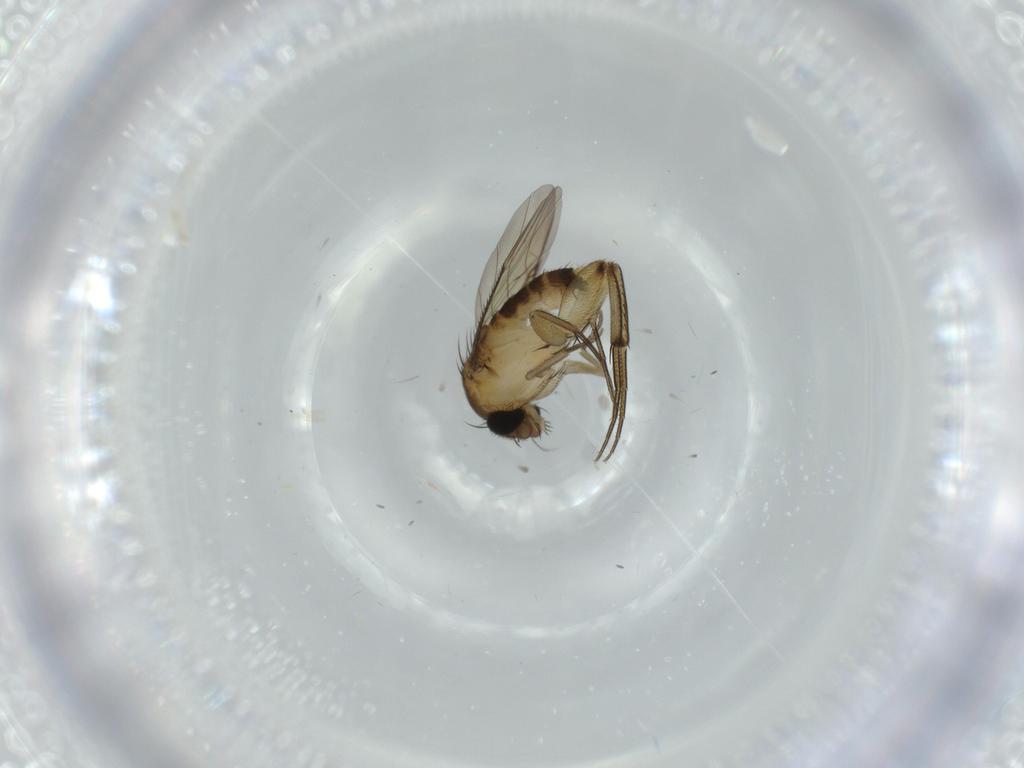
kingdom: Animalia
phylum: Arthropoda
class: Insecta
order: Diptera
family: Phoridae
